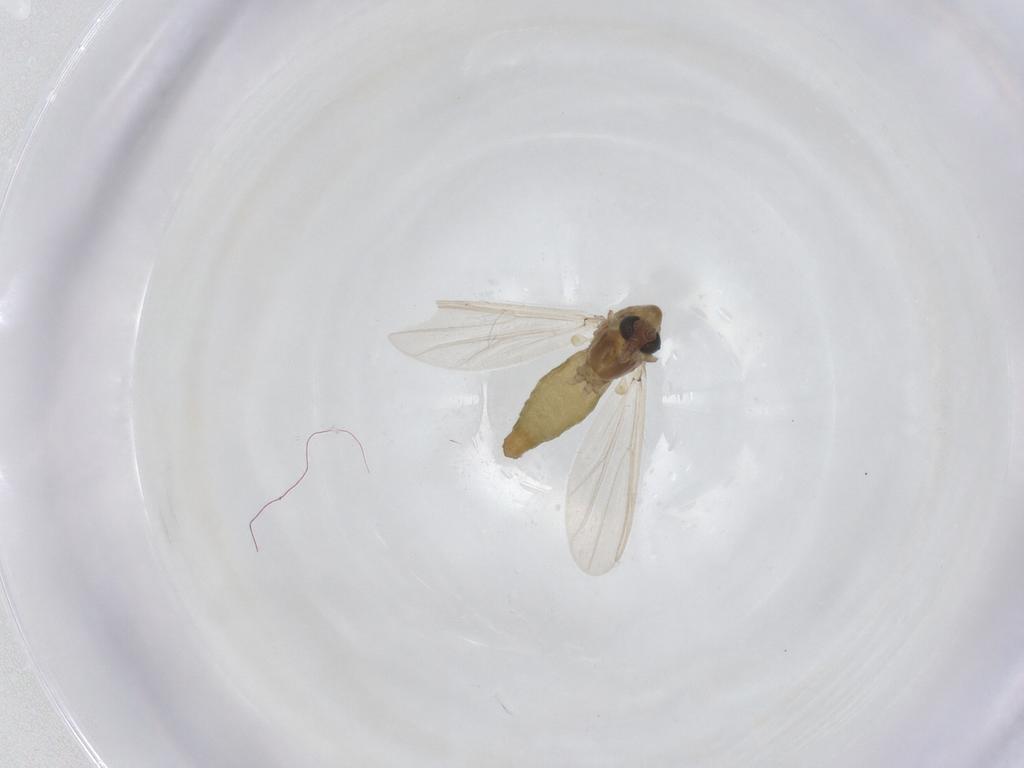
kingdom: Animalia
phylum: Arthropoda
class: Insecta
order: Diptera
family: Chironomidae
